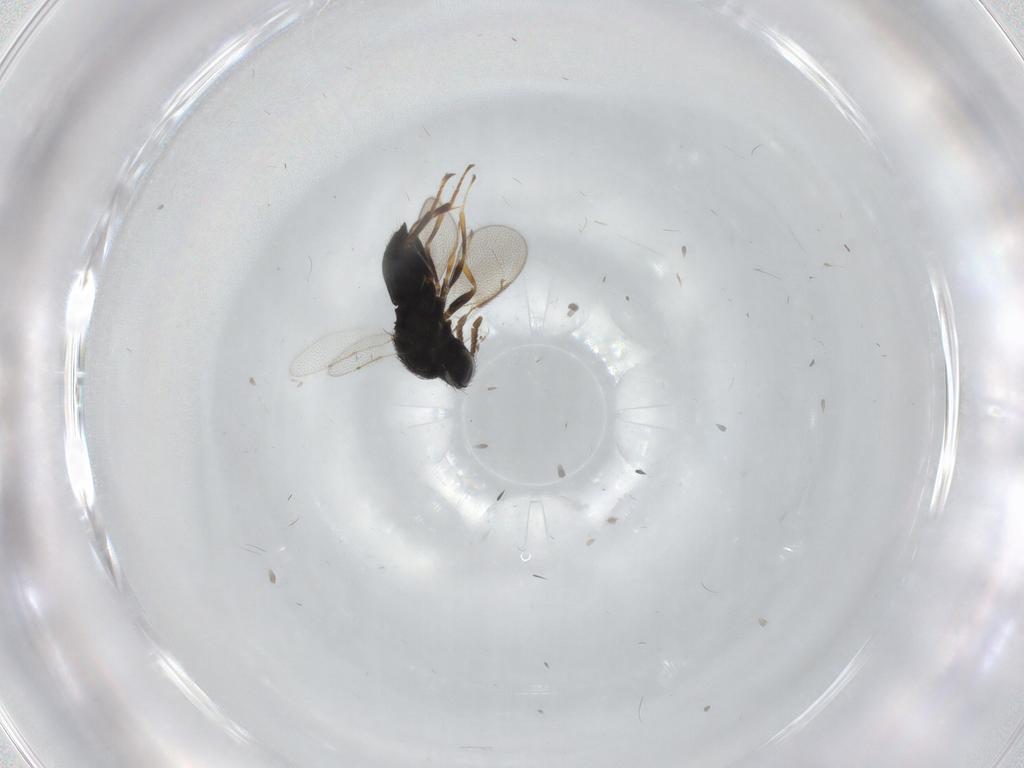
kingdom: Animalia
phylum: Arthropoda
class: Insecta
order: Hymenoptera
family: Pteromalidae
